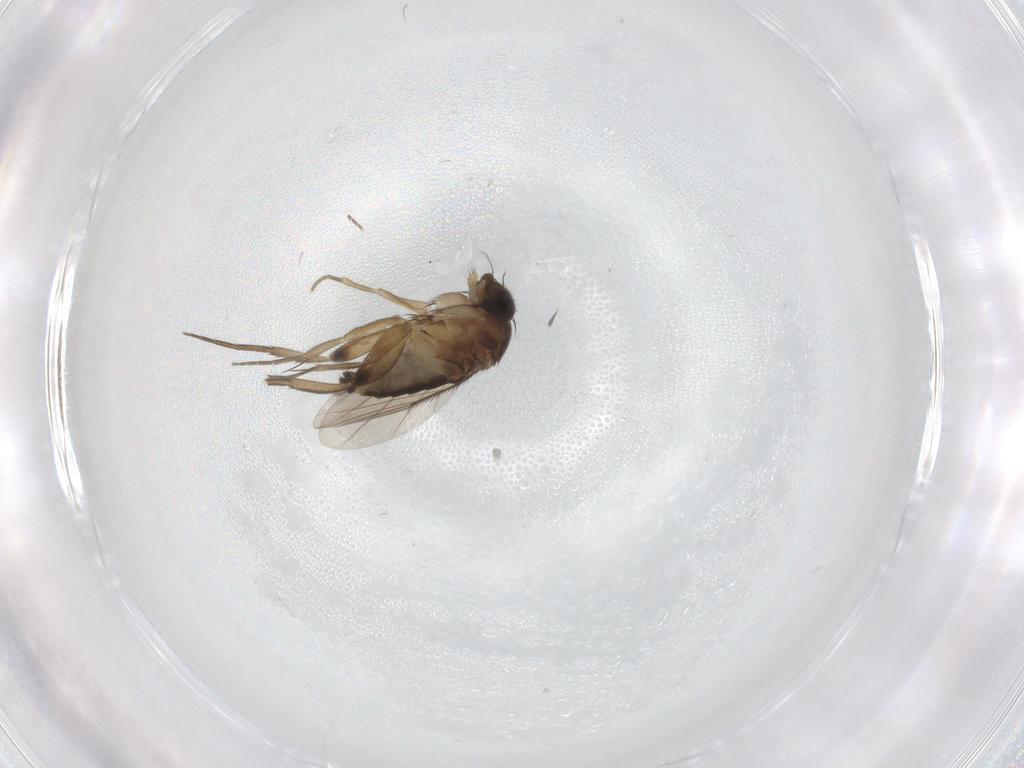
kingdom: Animalia
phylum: Arthropoda
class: Insecta
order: Diptera
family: Phoridae
